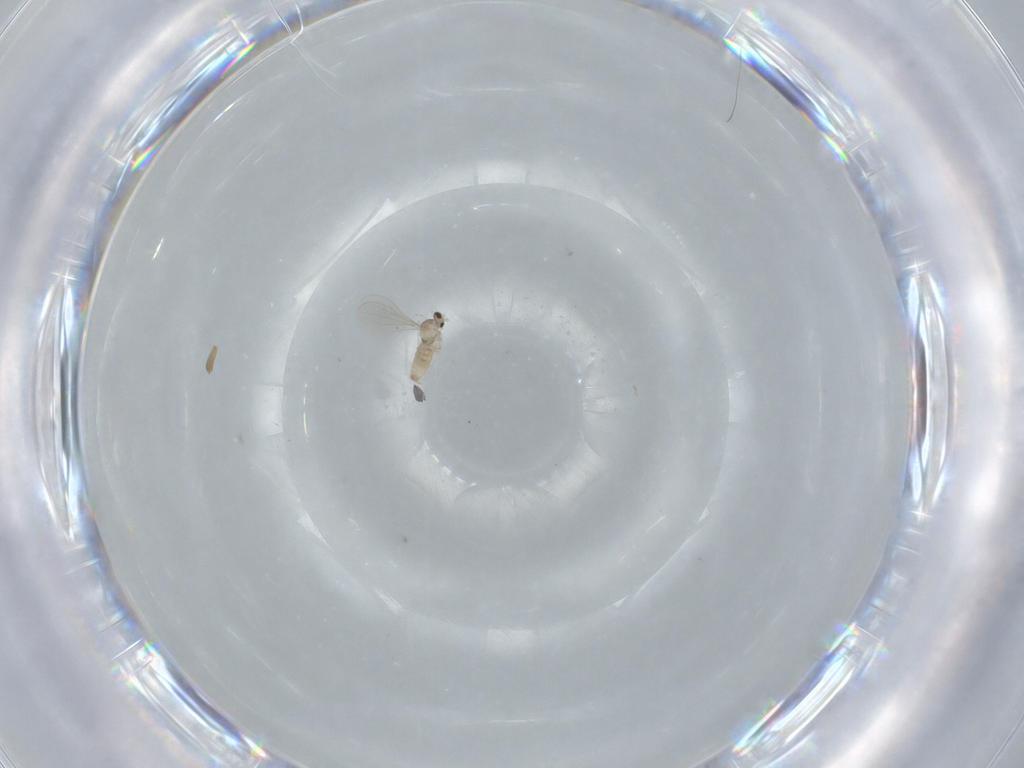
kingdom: Animalia
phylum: Arthropoda
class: Insecta
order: Diptera
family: Cecidomyiidae
